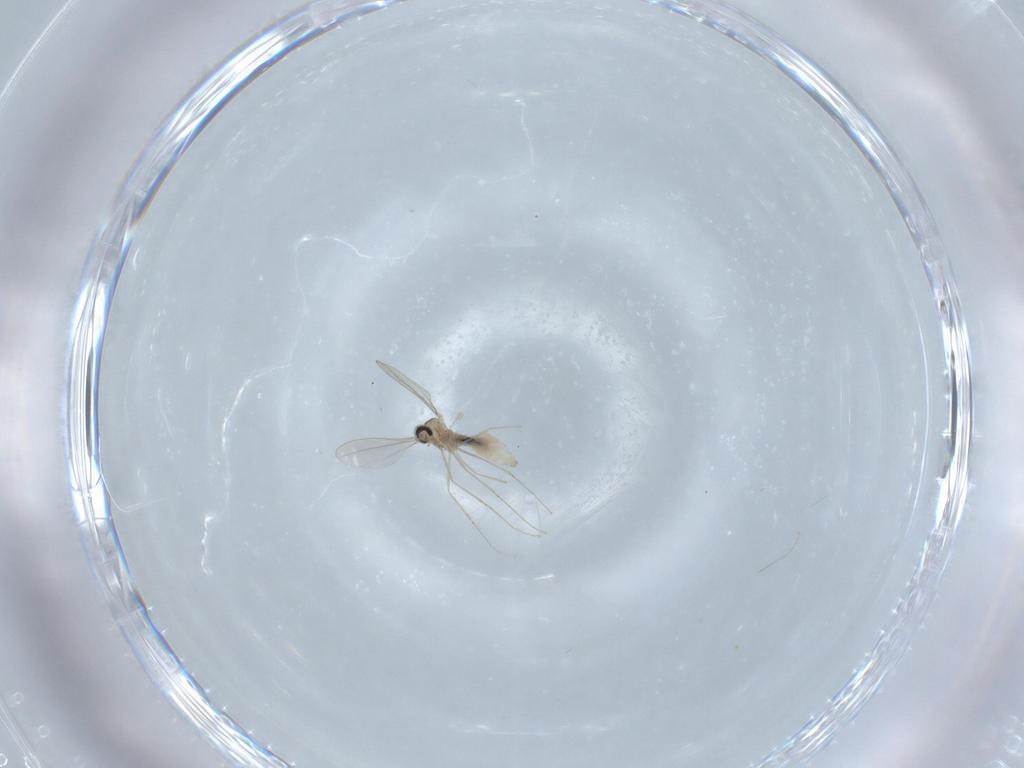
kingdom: Animalia
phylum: Arthropoda
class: Insecta
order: Diptera
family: Cecidomyiidae
